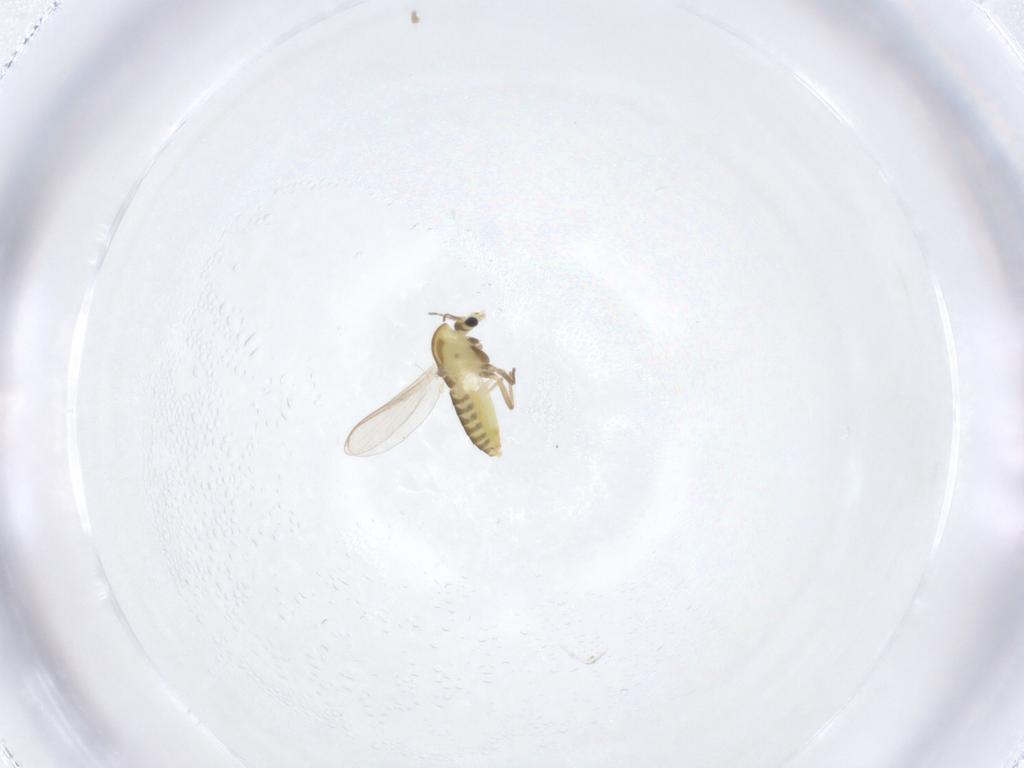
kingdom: Animalia
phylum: Arthropoda
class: Insecta
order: Diptera
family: Chironomidae
